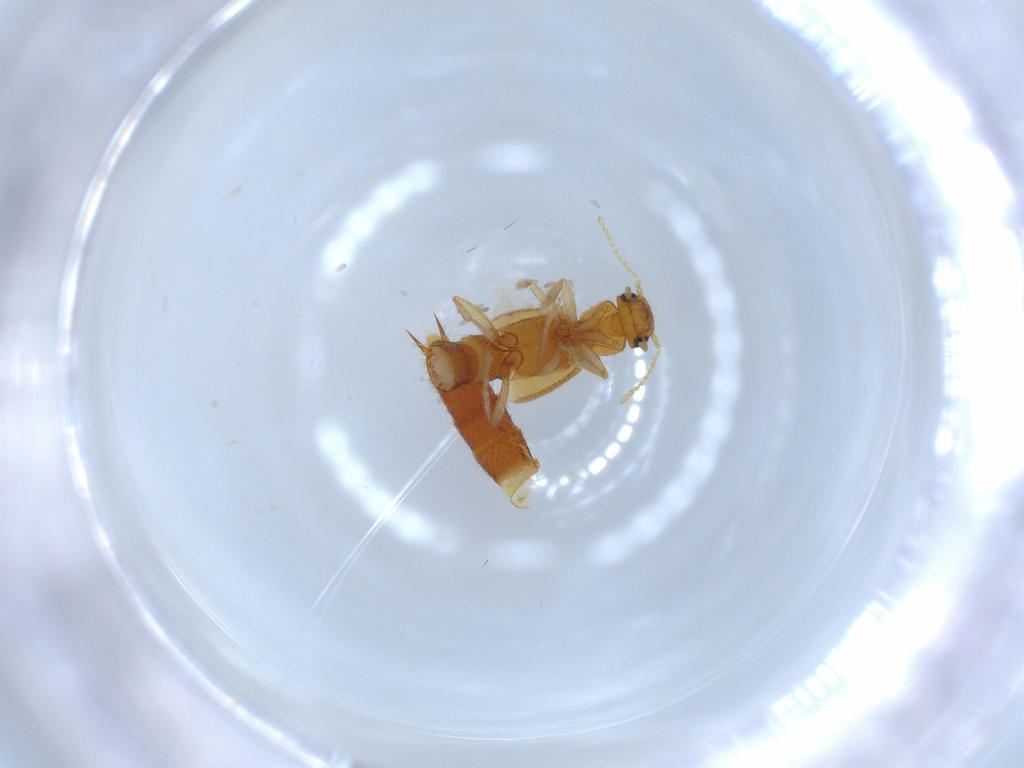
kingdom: Animalia
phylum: Arthropoda
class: Insecta
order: Coleoptera
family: Staphylinidae
